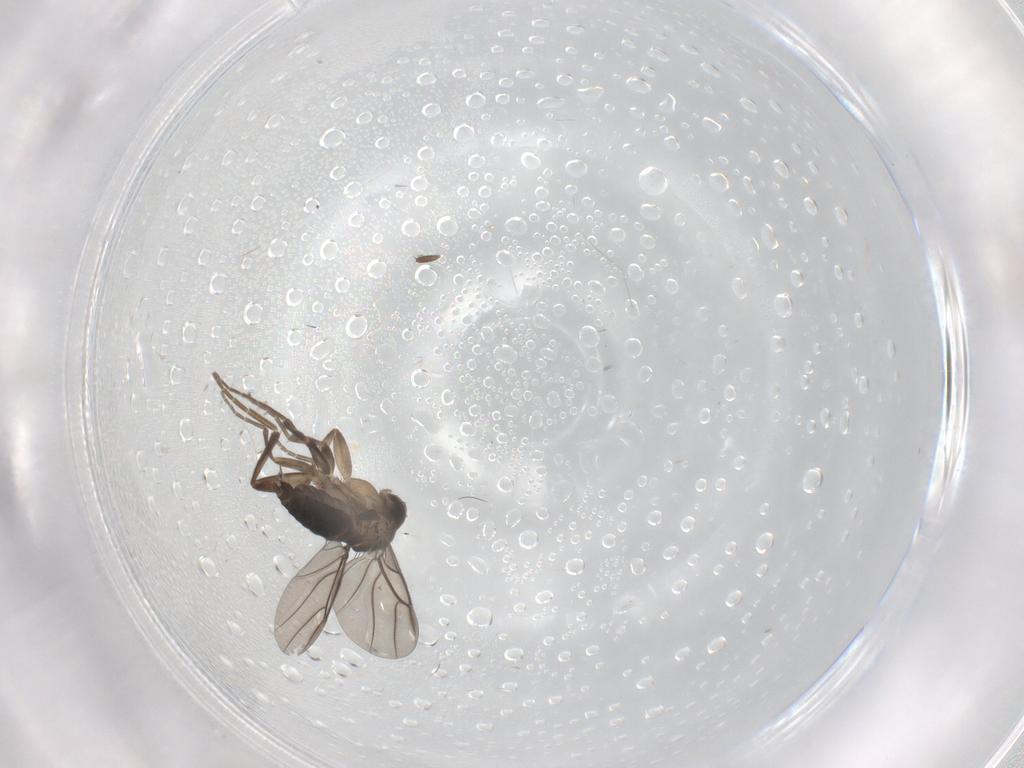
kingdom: Animalia
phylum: Arthropoda
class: Insecta
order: Diptera
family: Phoridae
